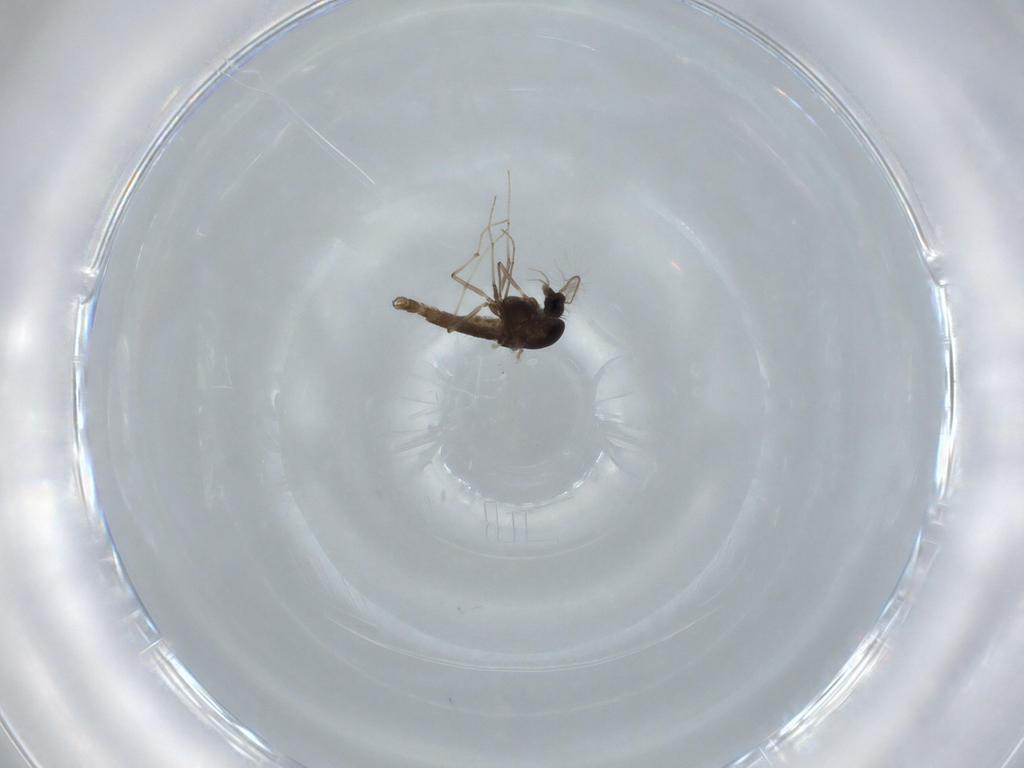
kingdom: Animalia
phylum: Arthropoda
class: Insecta
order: Diptera
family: Chironomidae
